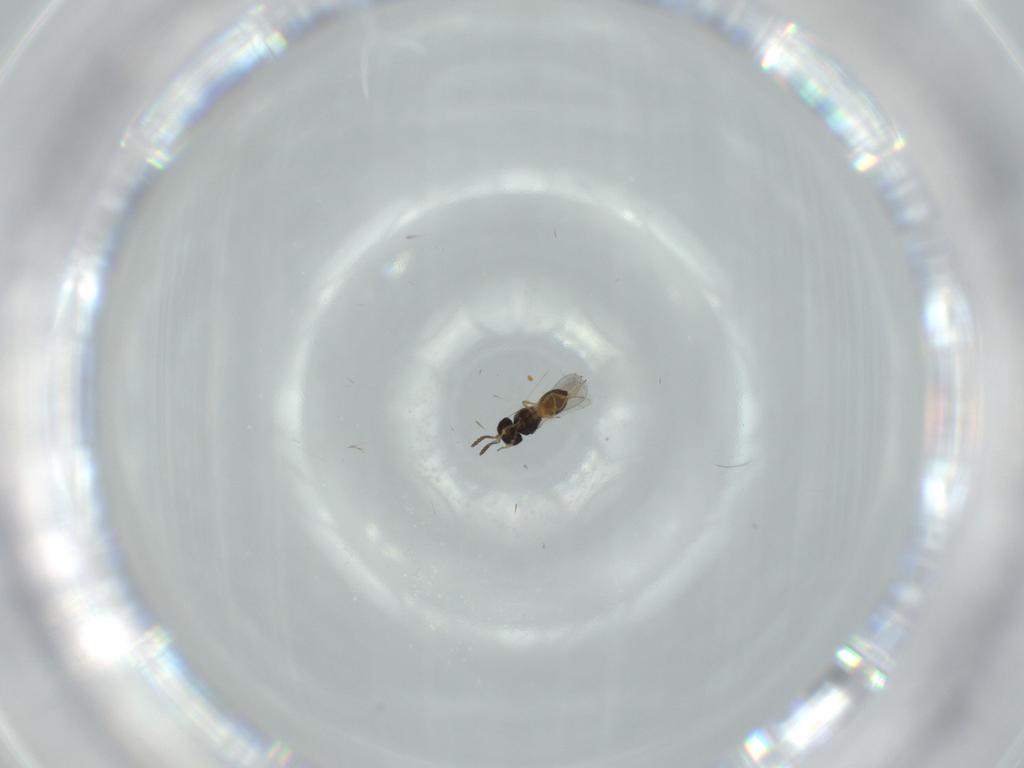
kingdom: Animalia
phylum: Arthropoda
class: Insecta
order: Hymenoptera
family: Scelionidae
